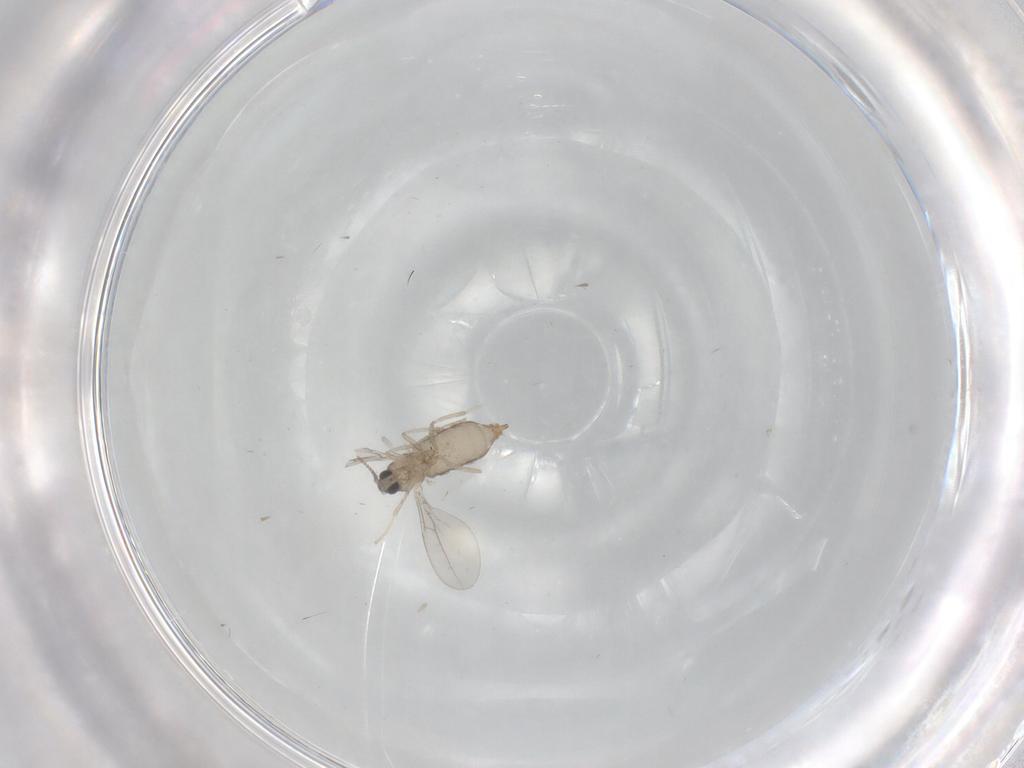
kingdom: Animalia
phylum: Arthropoda
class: Insecta
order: Diptera
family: Cecidomyiidae
